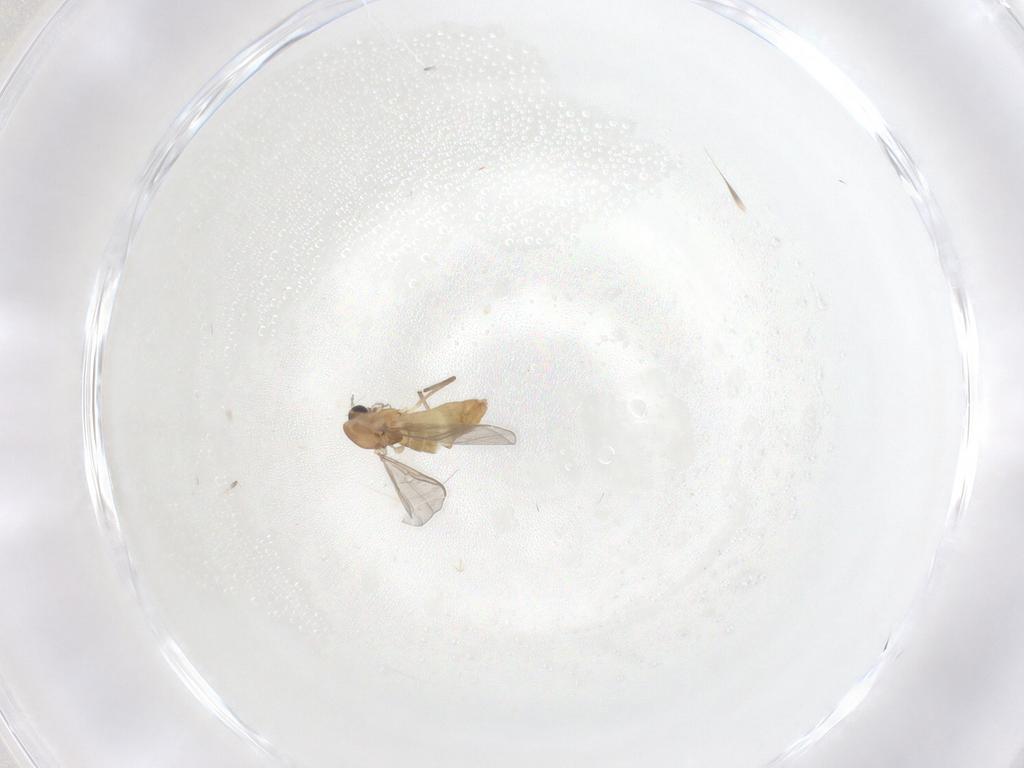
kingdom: Animalia
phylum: Arthropoda
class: Insecta
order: Diptera
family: Chironomidae
